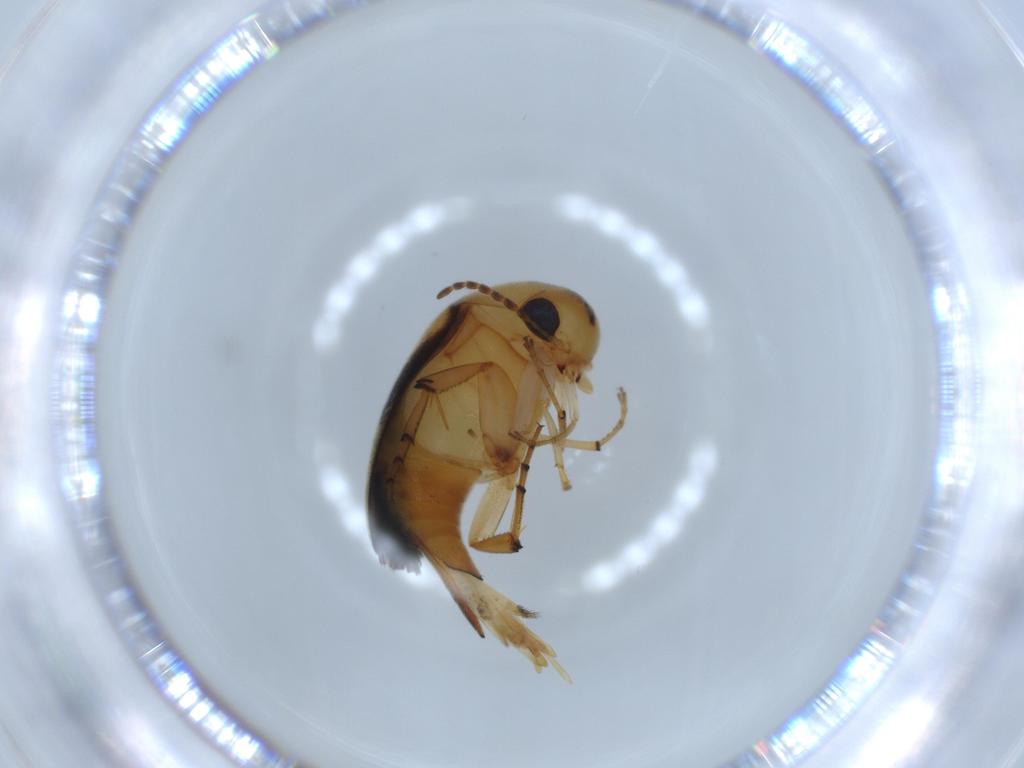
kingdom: Animalia
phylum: Arthropoda
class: Insecta
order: Coleoptera
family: Mordellidae
